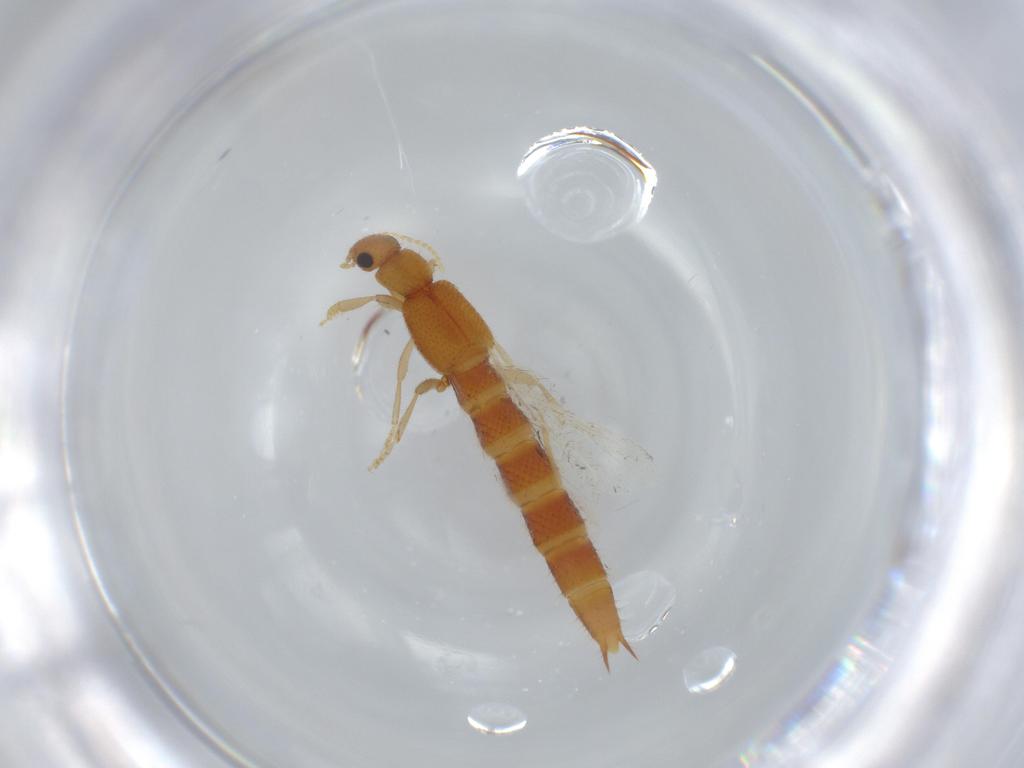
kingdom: Animalia
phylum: Arthropoda
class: Insecta
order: Coleoptera
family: Staphylinidae
